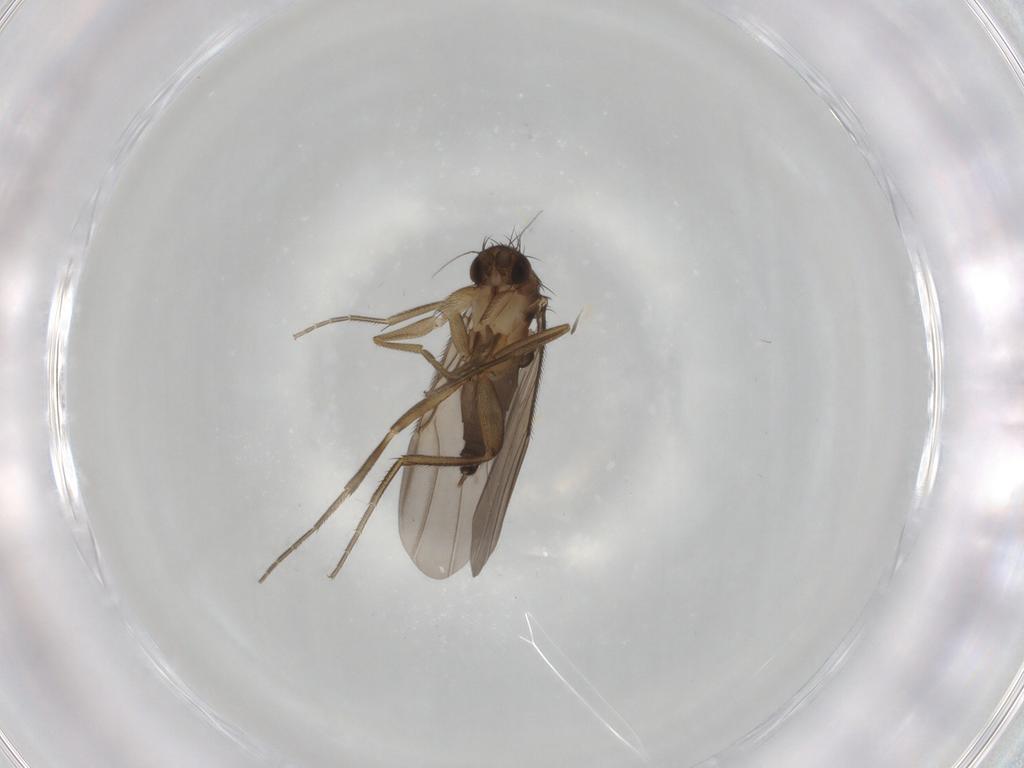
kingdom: Animalia
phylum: Arthropoda
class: Insecta
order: Diptera
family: Phoridae
